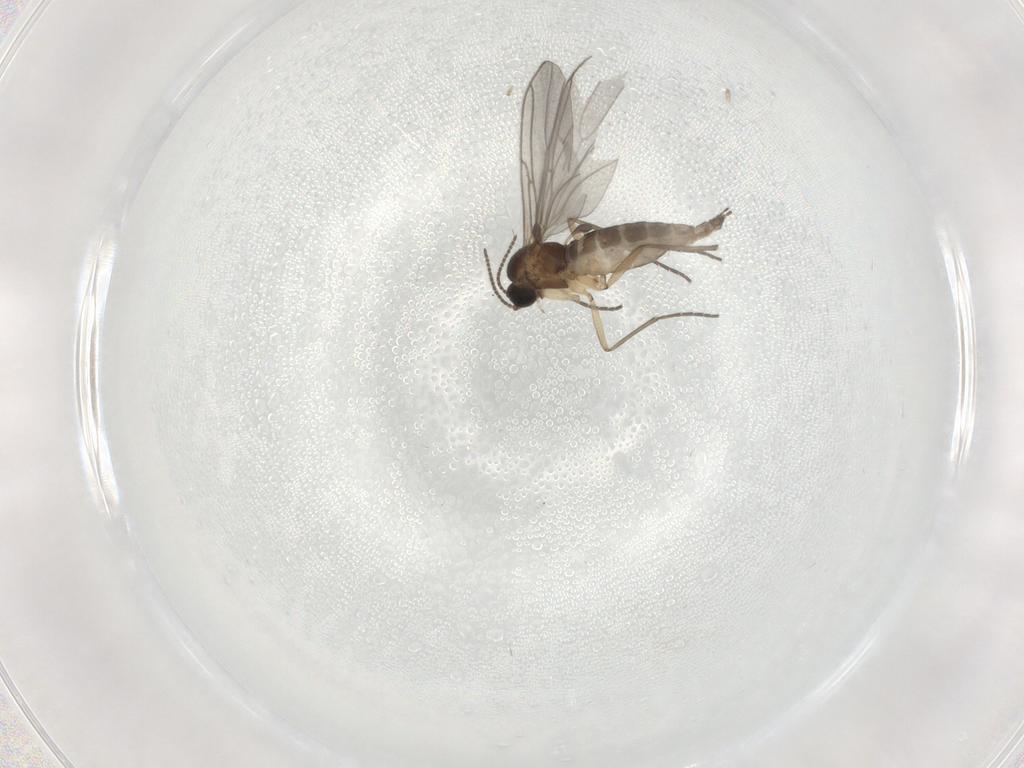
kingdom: Animalia
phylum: Arthropoda
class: Insecta
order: Diptera
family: Sciaridae
